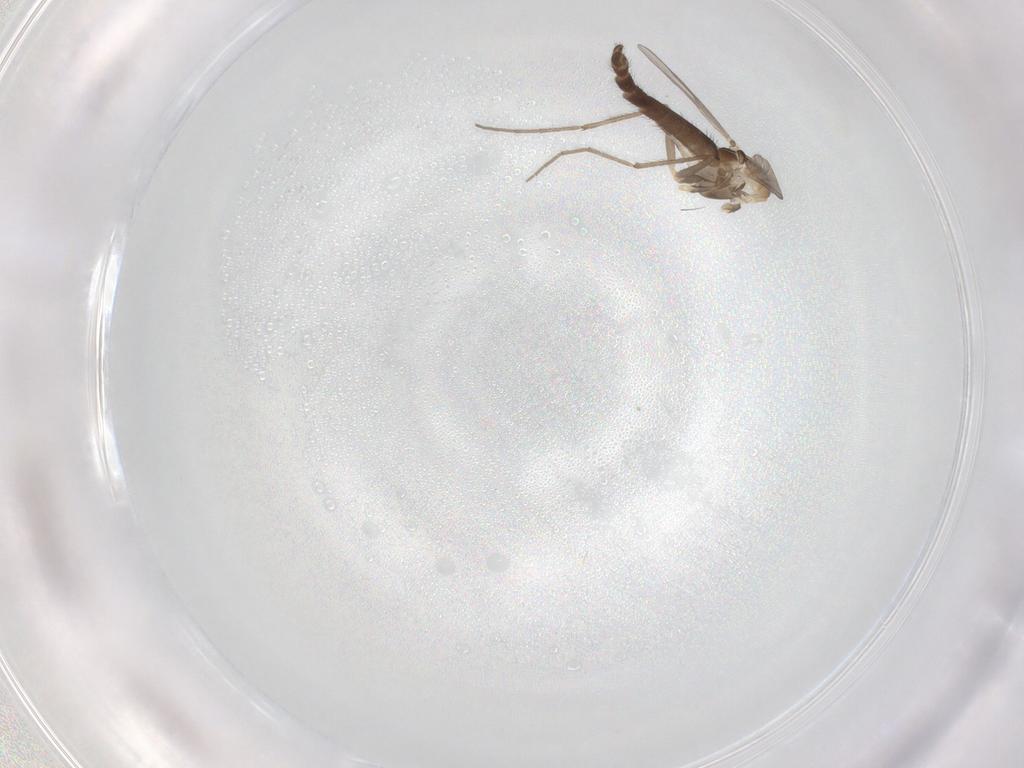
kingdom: Animalia
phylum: Arthropoda
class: Insecta
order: Diptera
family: Chironomidae
